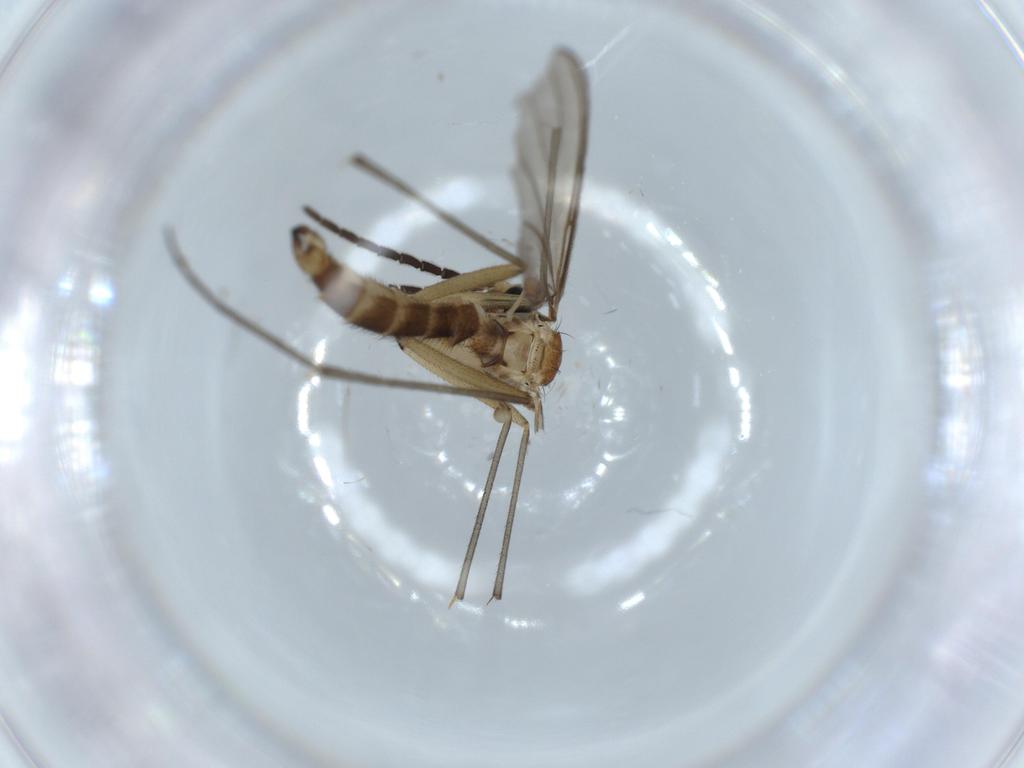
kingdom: Animalia
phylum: Arthropoda
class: Insecta
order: Diptera
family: Sciaridae
